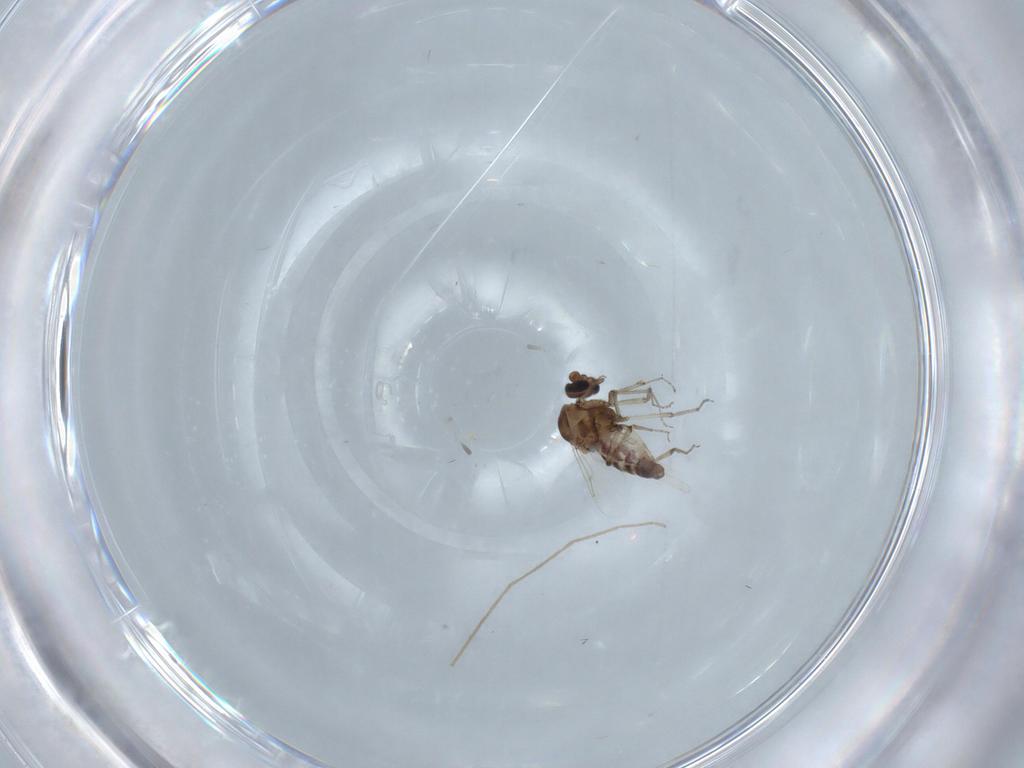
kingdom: Animalia
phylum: Arthropoda
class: Insecta
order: Diptera
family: Ceratopogonidae
